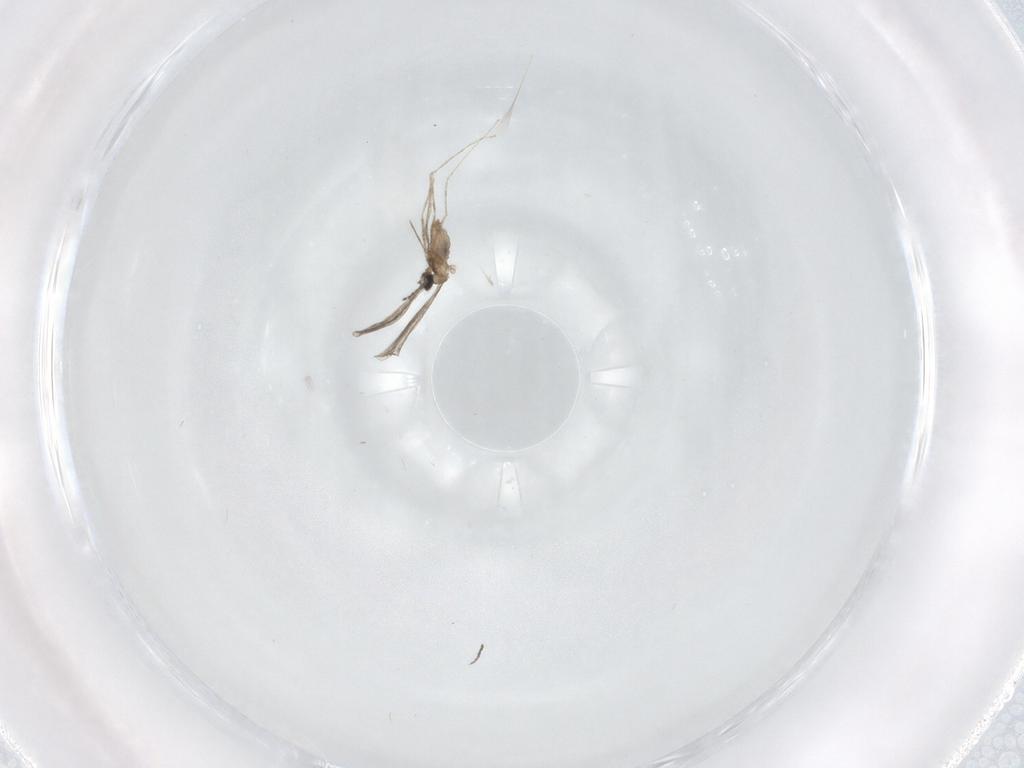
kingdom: Animalia
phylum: Arthropoda
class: Insecta
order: Diptera
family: Cecidomyiidae
